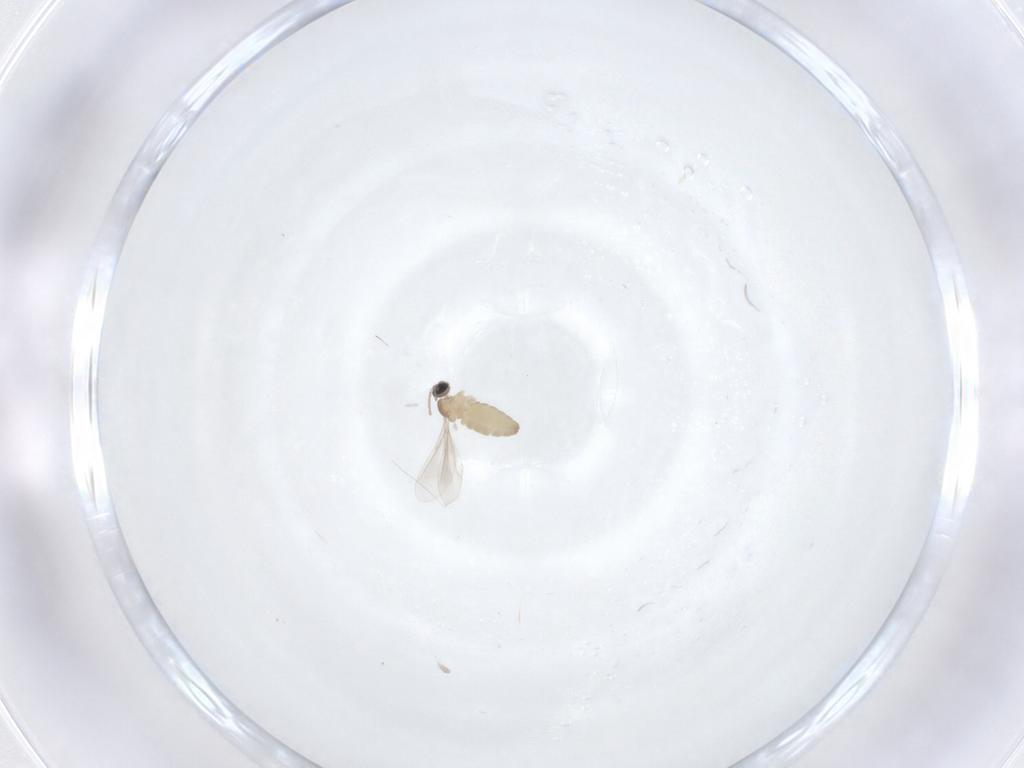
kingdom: Animalia
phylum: Arthropoda
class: Insecta
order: Diptera
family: Cecidomyiidae
